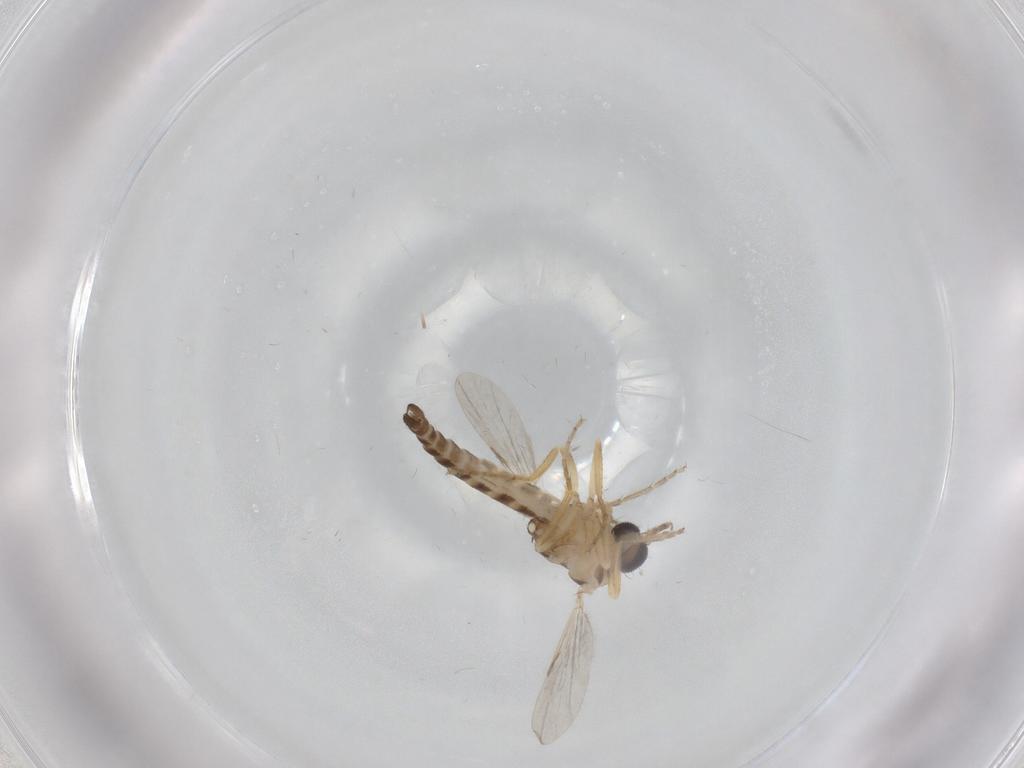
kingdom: Animalia
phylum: Arthropoda
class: Insecta
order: Diptera
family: Ceratopogonidae
